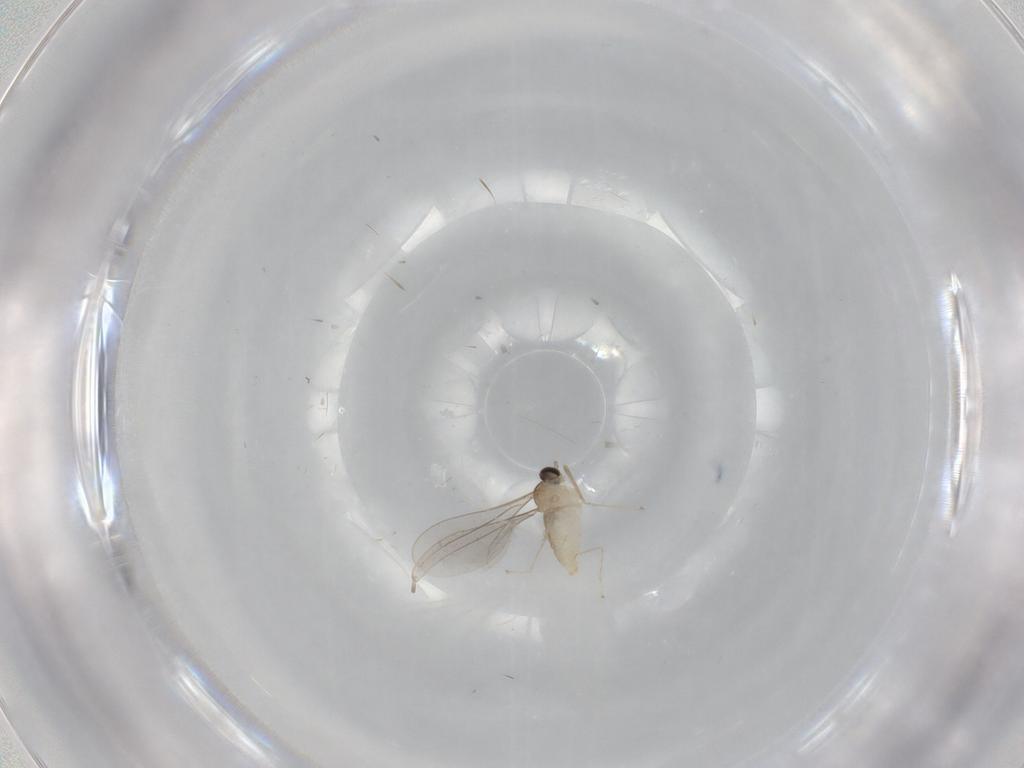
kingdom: Animalia
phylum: Arthropoda
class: Insecta
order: Diptera
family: Cecidomyiidae
